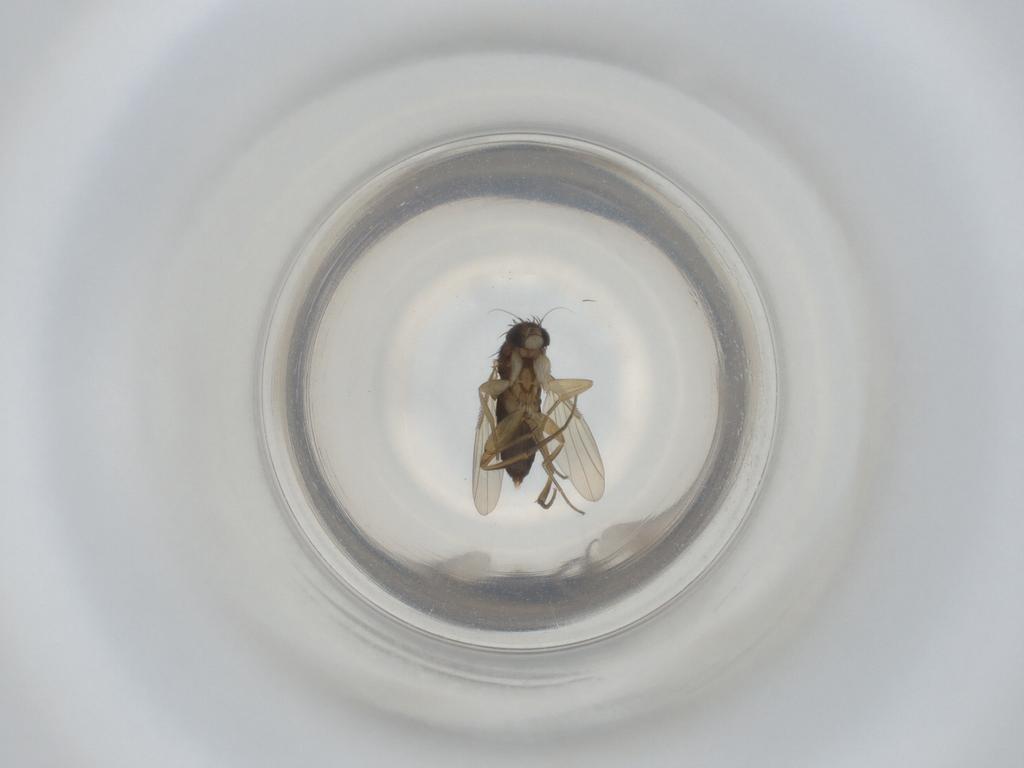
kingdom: Animalia
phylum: Arthropoda
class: Insecta
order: Diptera
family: Phoridae
